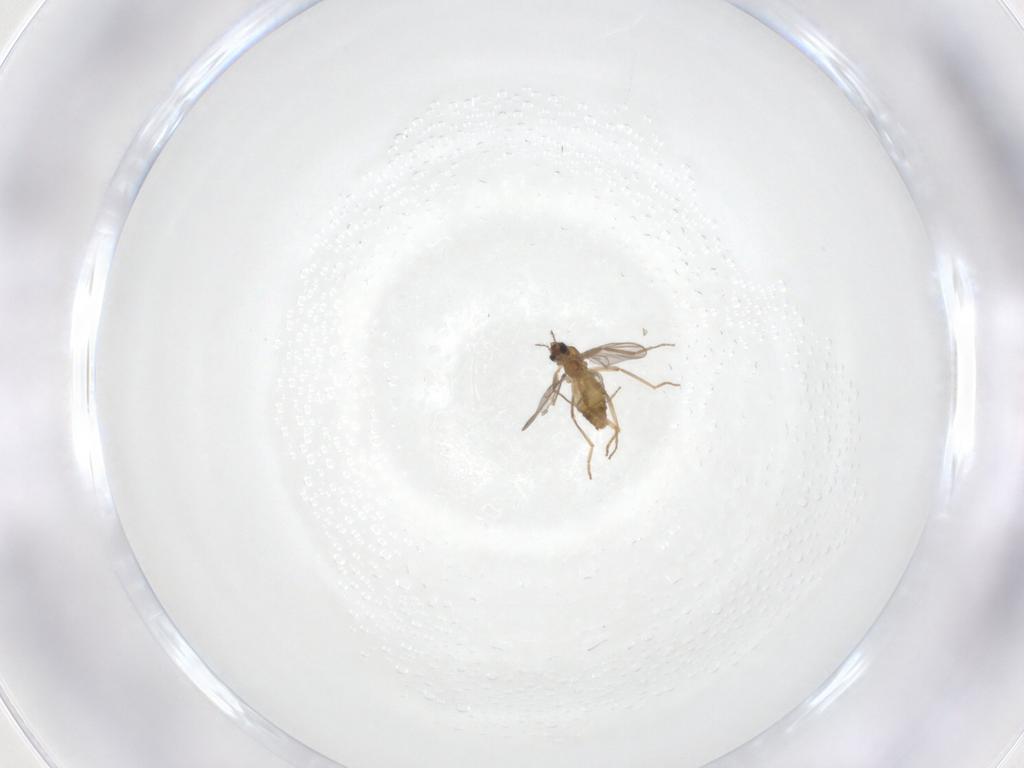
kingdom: Animalia
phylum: Arthropoda
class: Insecta
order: Diptera
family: Chironomidae
